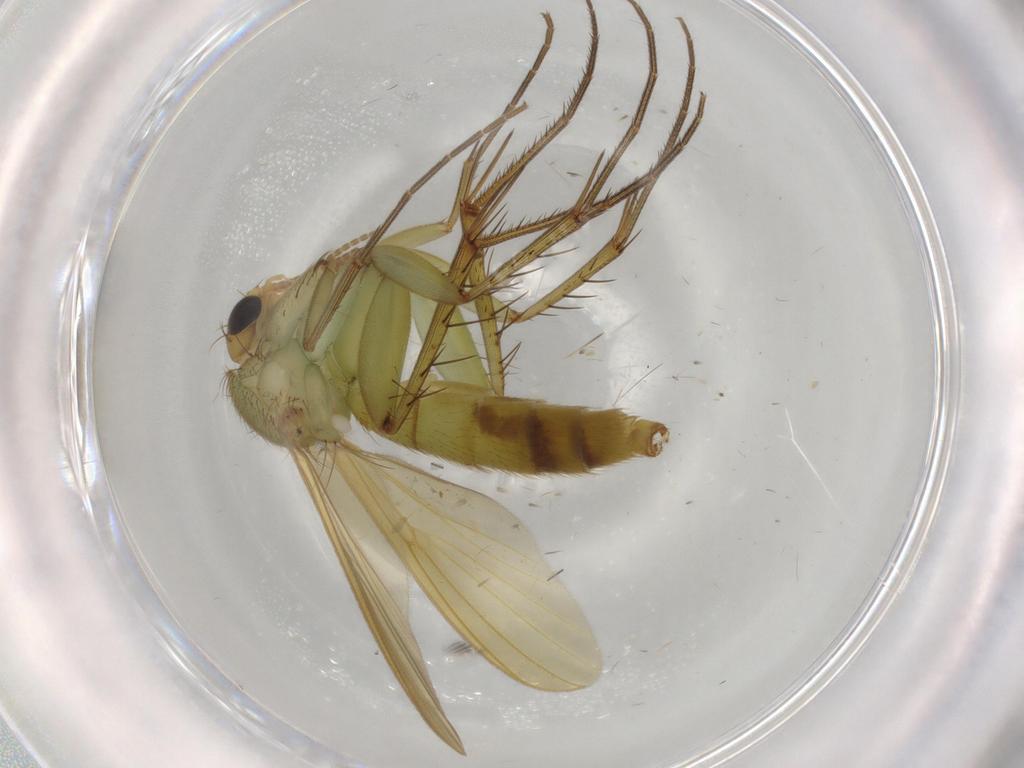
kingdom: Animalia
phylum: Arthropoda
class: Insecta
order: Diptera
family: Mycetophilidae
